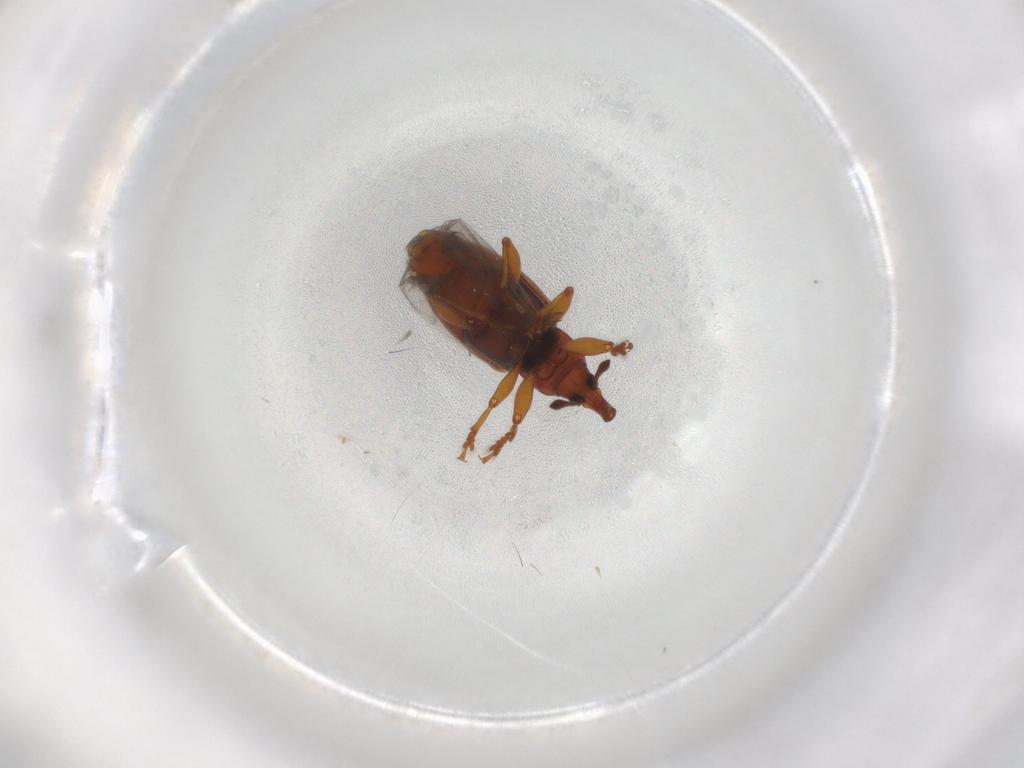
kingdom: Animalia
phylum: Arthropoda
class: Insecta
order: Coleoptera
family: Curculionidae
